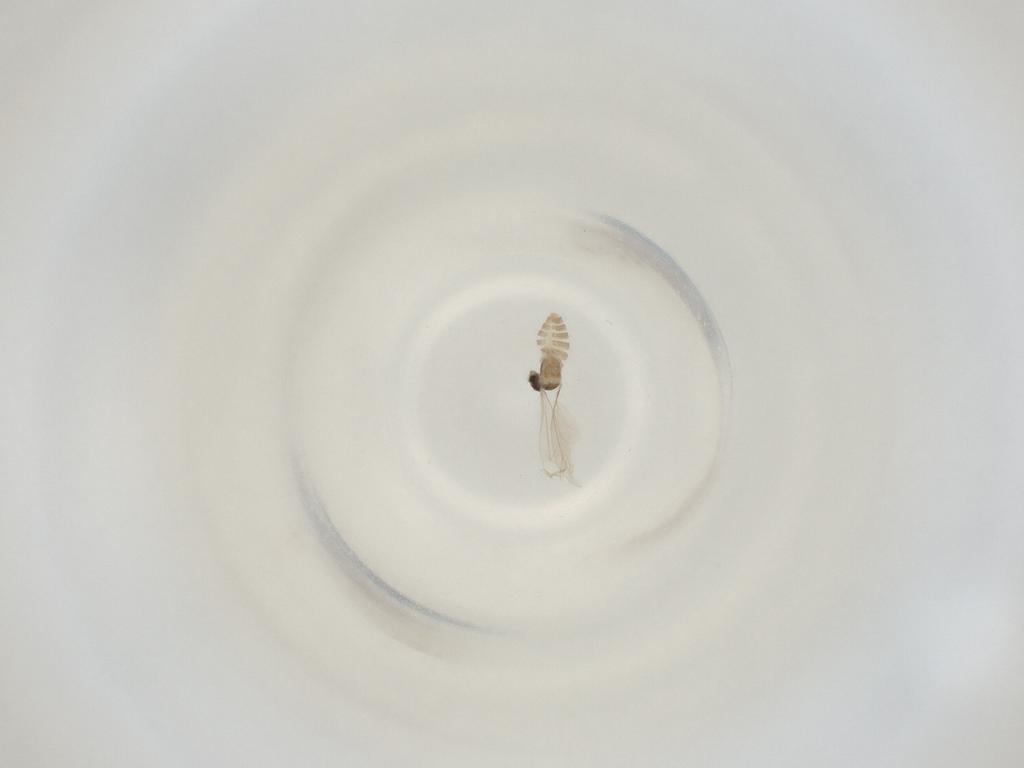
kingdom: Animalia
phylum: Arthropoda
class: Insecta
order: Diptera
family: Cecidomyiidae
